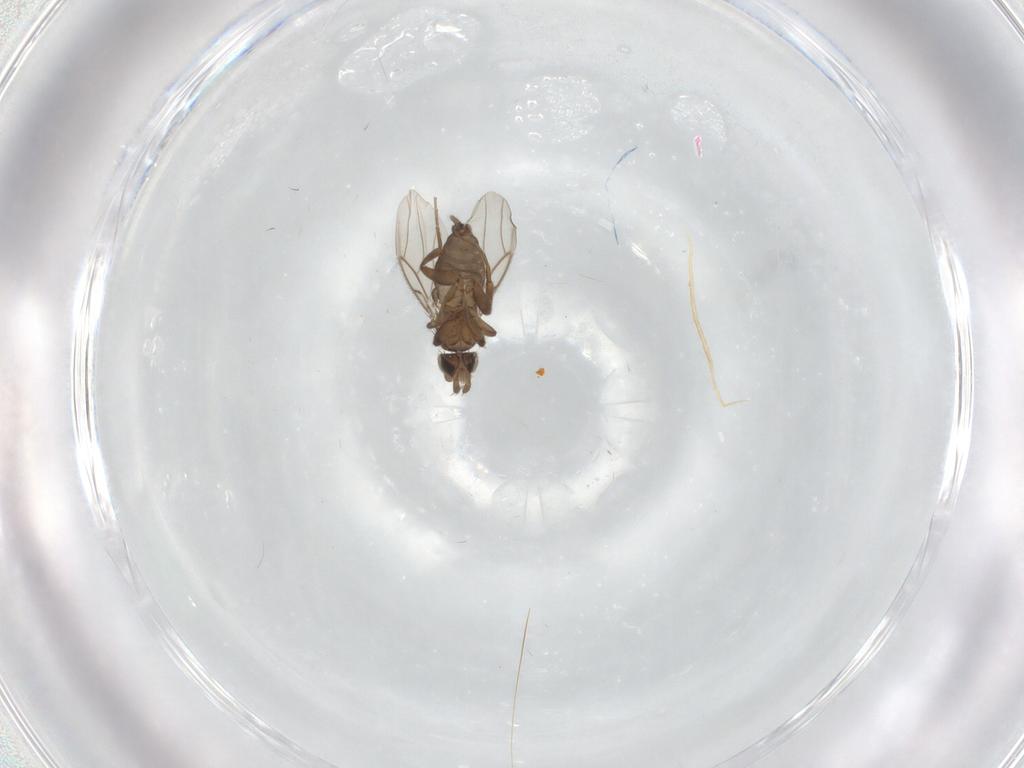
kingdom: Animalia
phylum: Arthropoda
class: Insecta
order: Diptera
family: Phoridae
